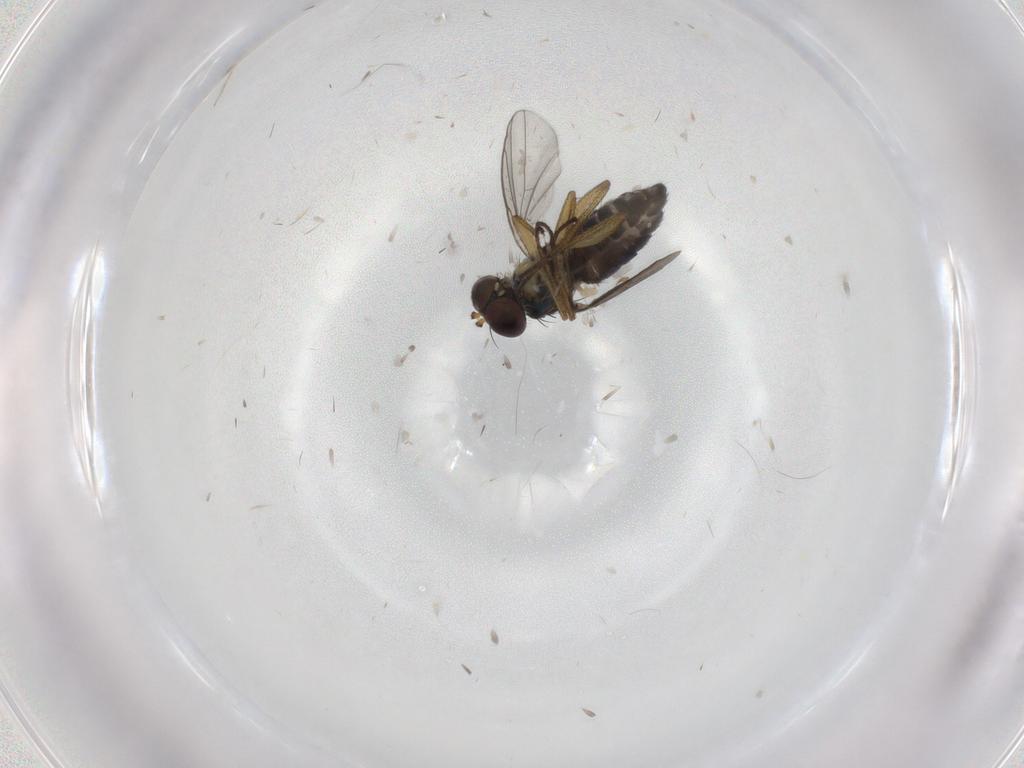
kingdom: Animalia
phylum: Arthropoda
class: Insecta
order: Diptera
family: Dolichopodidae
